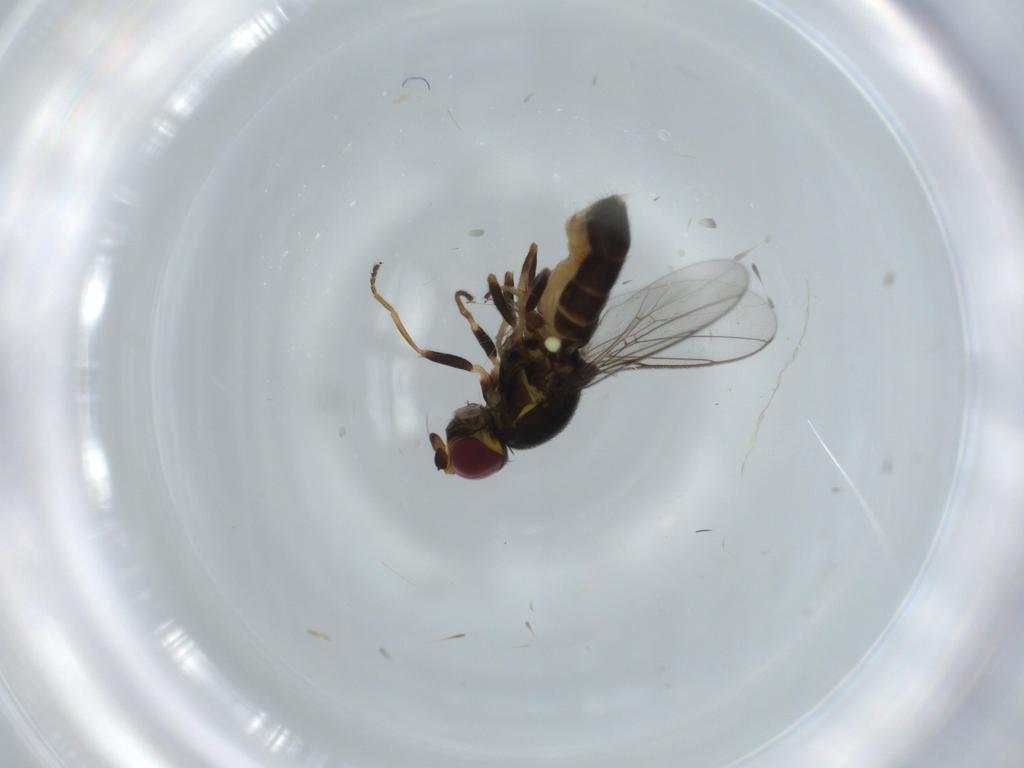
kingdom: Animalia
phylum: Arthropoda
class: Insecta
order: Diptera
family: Chloropidae
